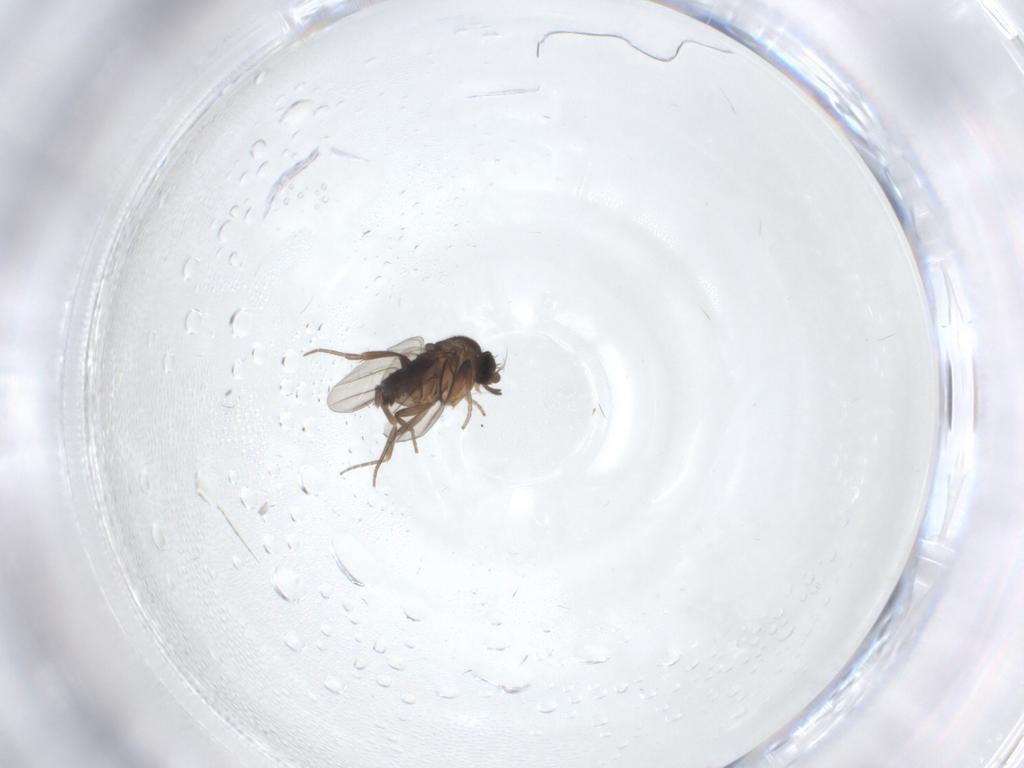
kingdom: Animalia
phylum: Arthropoda
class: Insecta
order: Diptera
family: Phoridae
